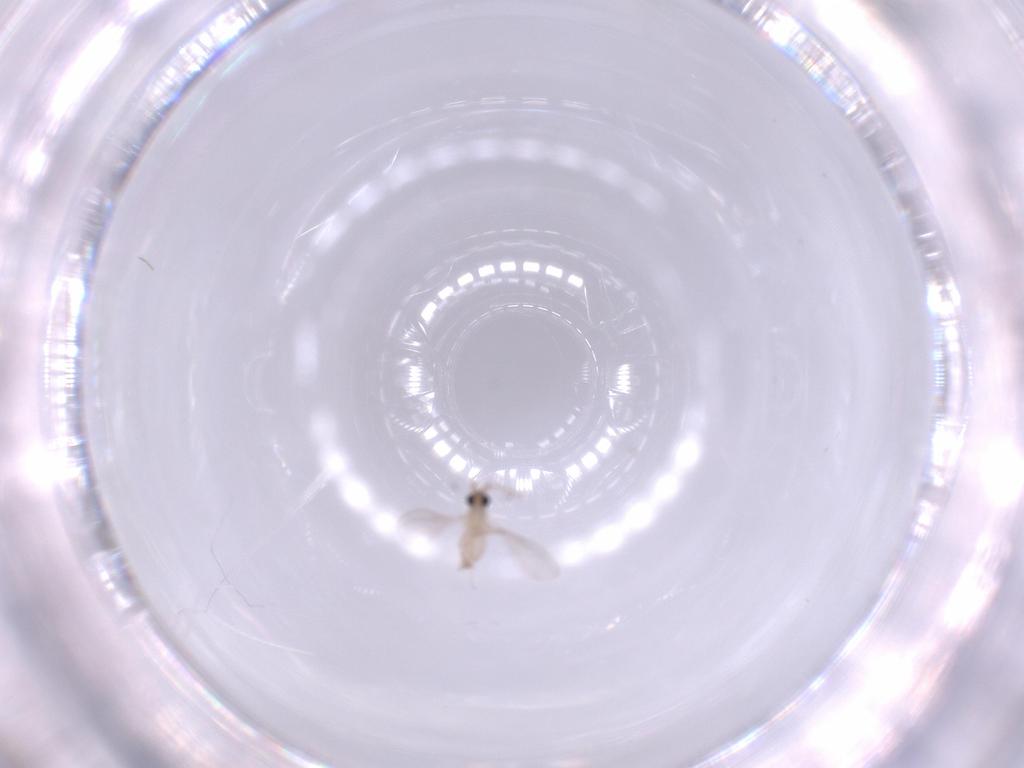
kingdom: Animalia
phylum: Arthropoda
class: Insecta
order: Diptera
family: Cecidomyiidae
